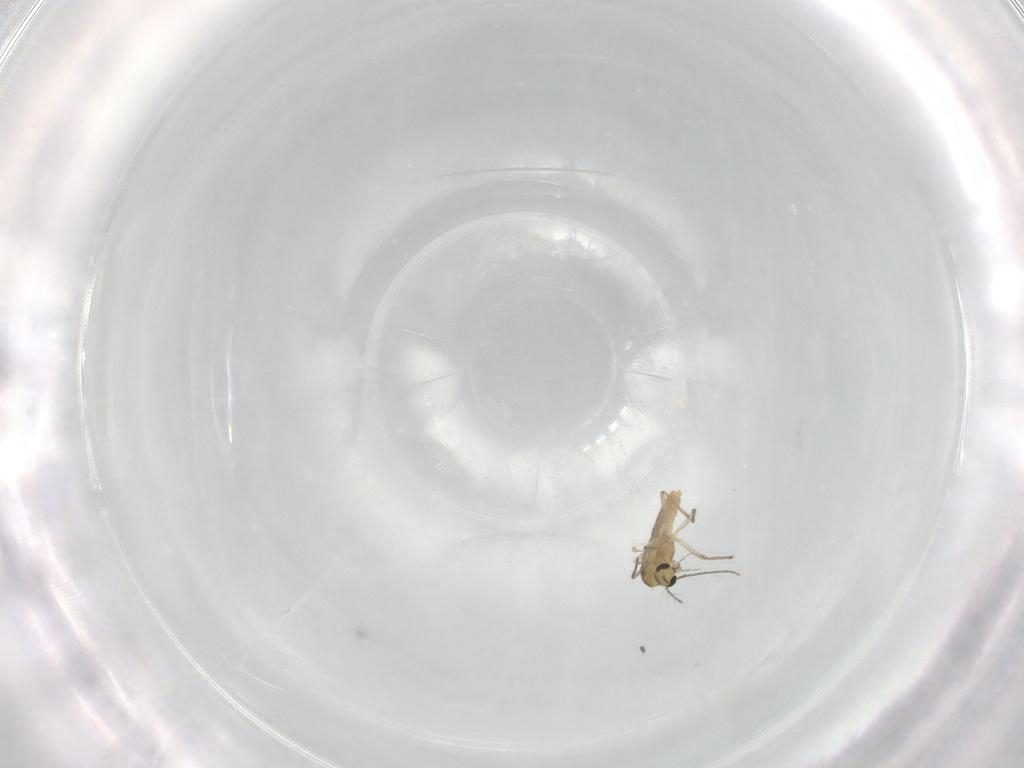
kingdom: Animalia
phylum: Arthropoda
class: Insecta
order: Diptera
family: Chironomidae
